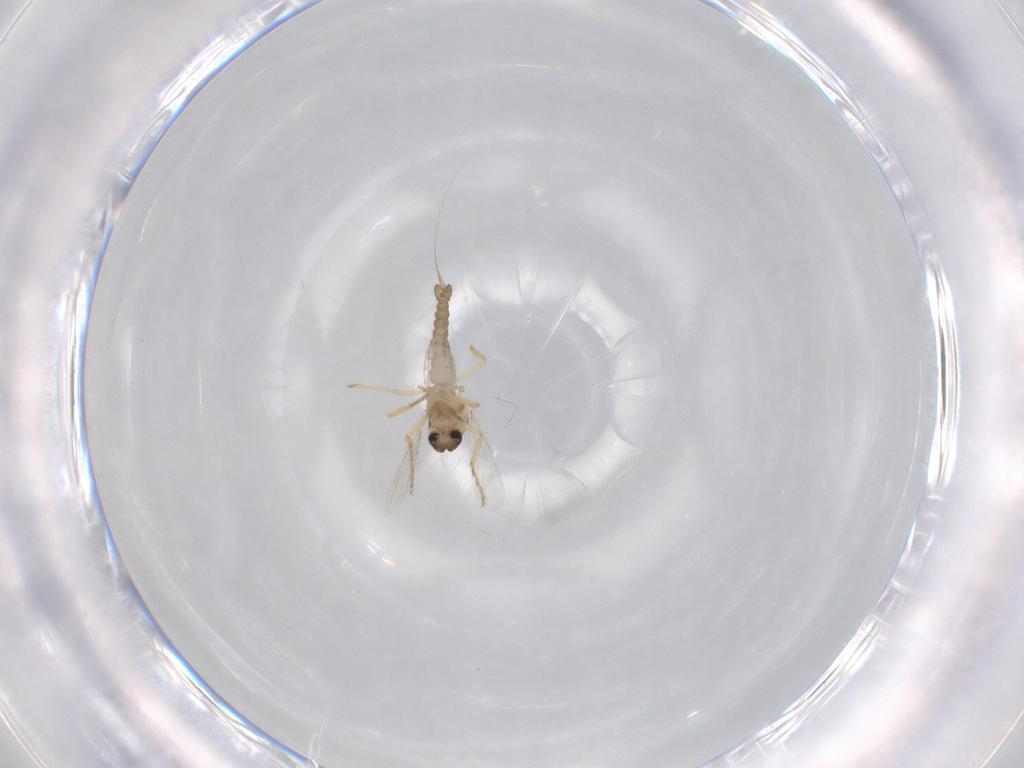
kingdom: Animalia
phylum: Arthropoda
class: Insecta
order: Diptera
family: Ceratopogonidae
